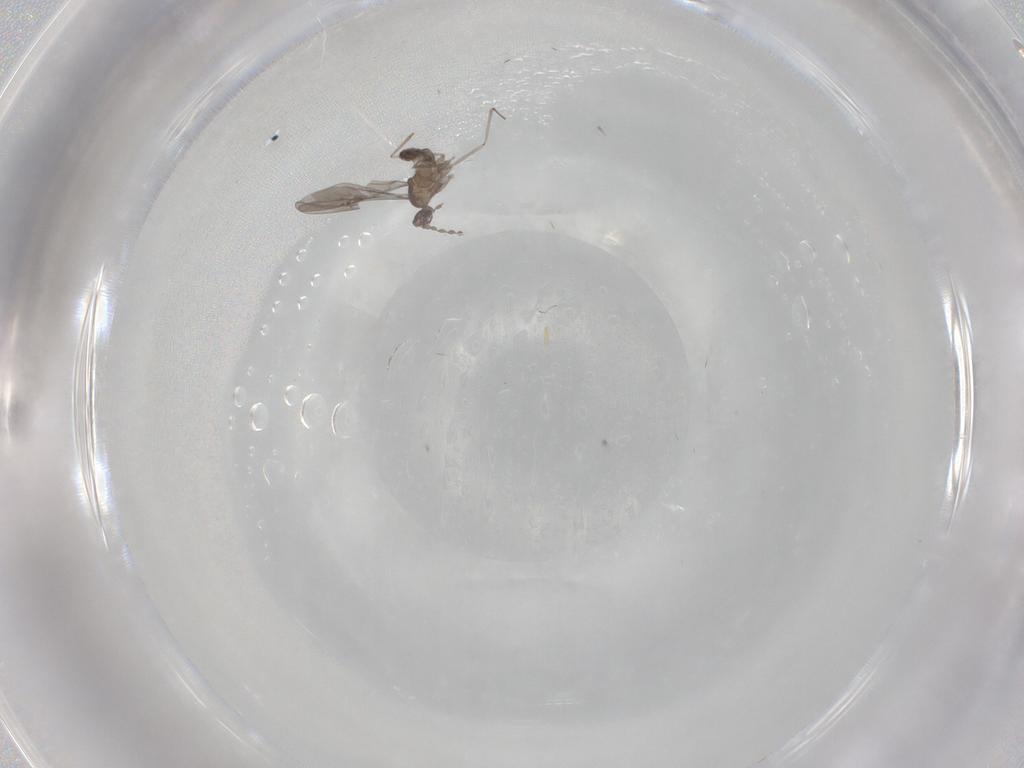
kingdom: Animalia
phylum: Arthropoda
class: Insecta
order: Diptera
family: Cecidomyiidae
